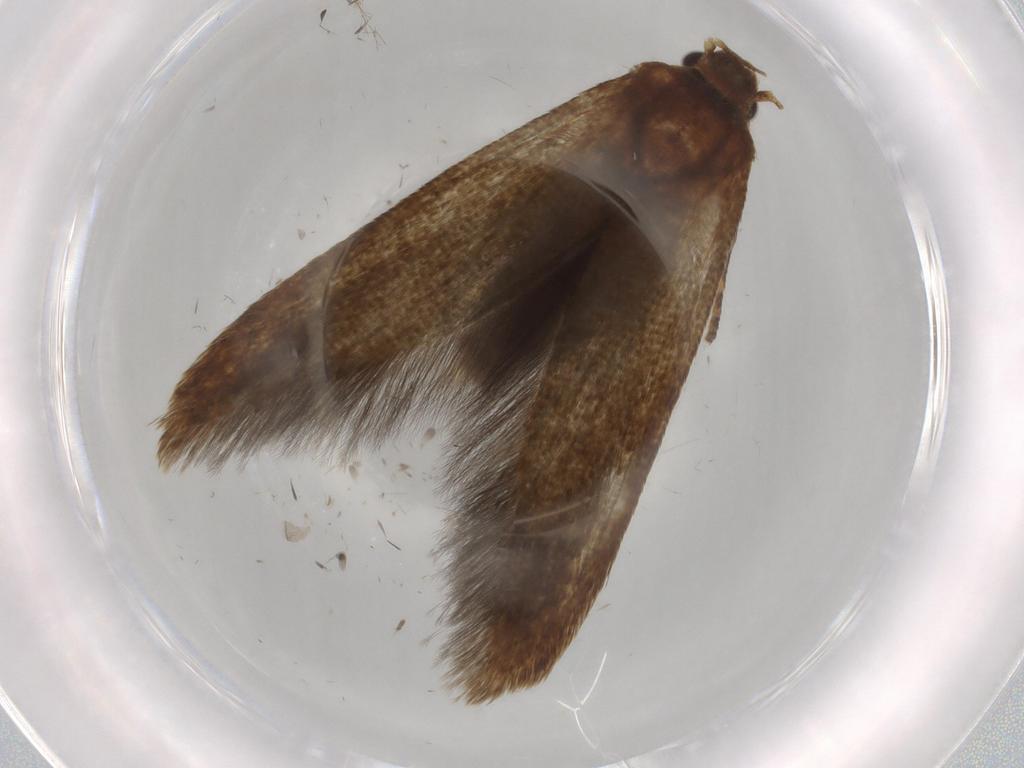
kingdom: Animalia
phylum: Arthropoda
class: Insecta
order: Lepidoptera
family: Blastobasidae
